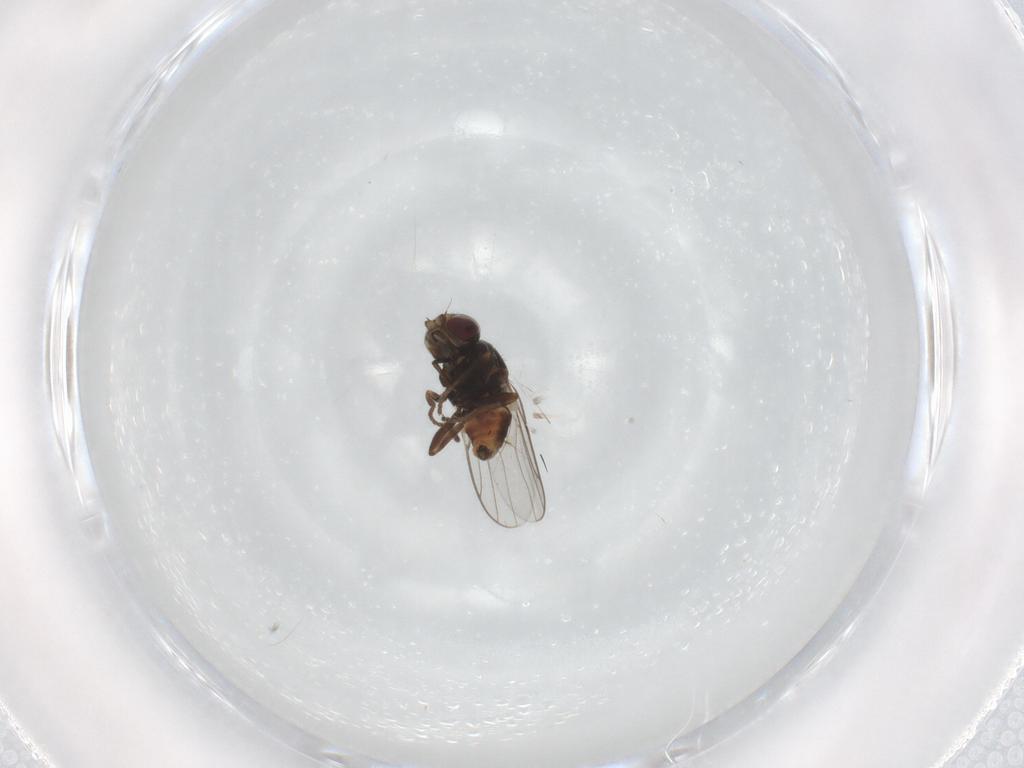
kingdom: Animalia
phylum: Arthropoda
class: Insecta
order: Diptera
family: Chloropidae
